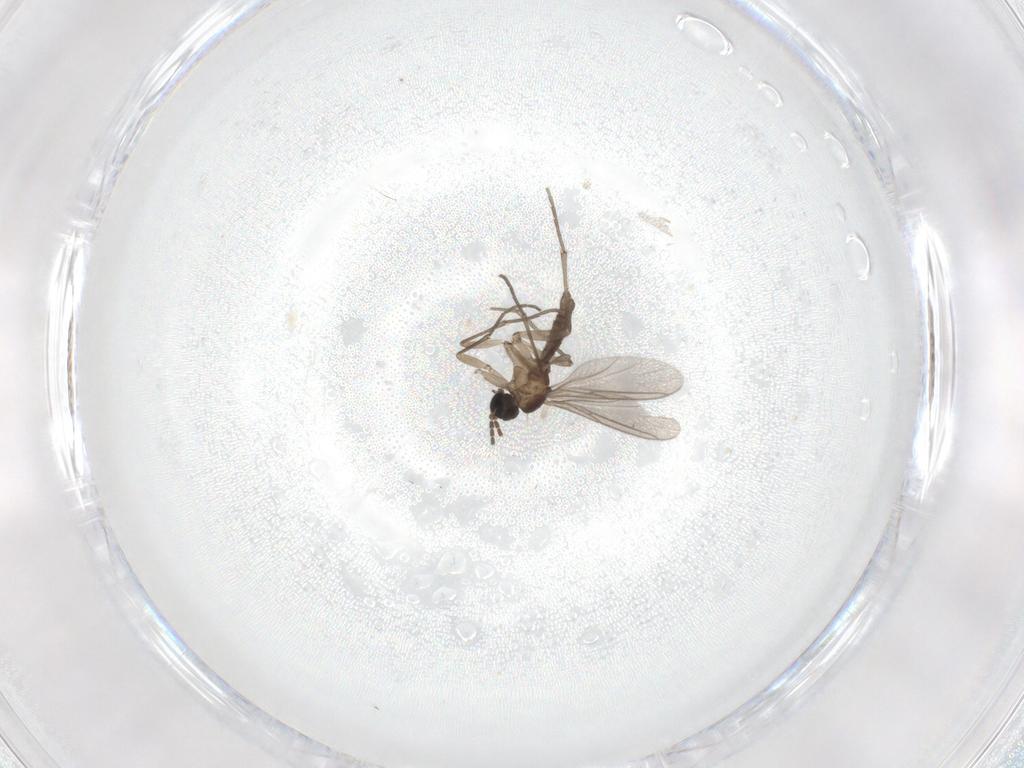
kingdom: Animalia
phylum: Arthropoda
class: Insecta
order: Diptera
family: Sciaridae
